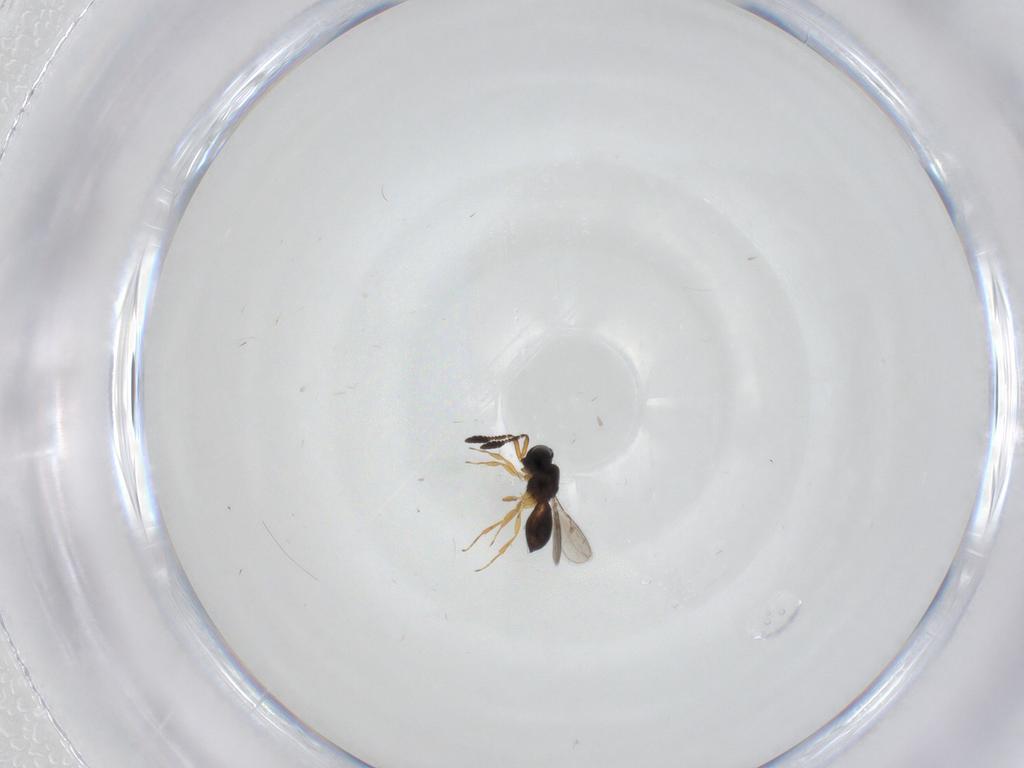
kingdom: Animalia
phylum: Arthropoda
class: Insecta
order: Hymenoptera
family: Scelionidae
